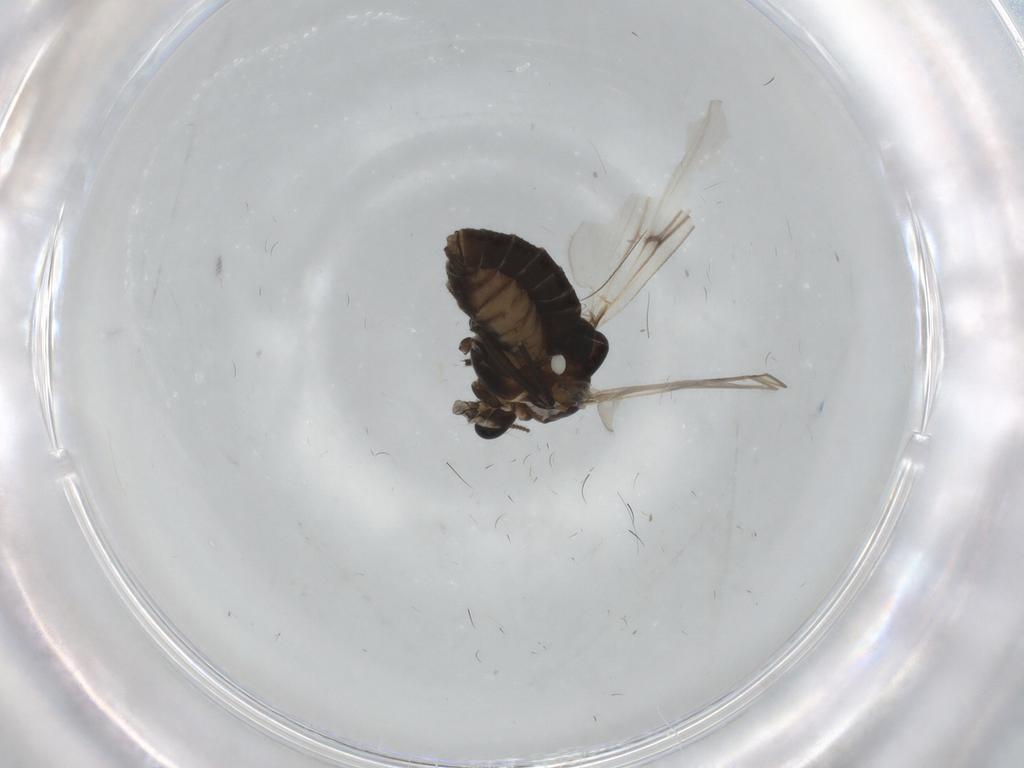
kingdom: Animalia
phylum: Arthropoda
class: Insecta
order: Diptera
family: Chironomidae
